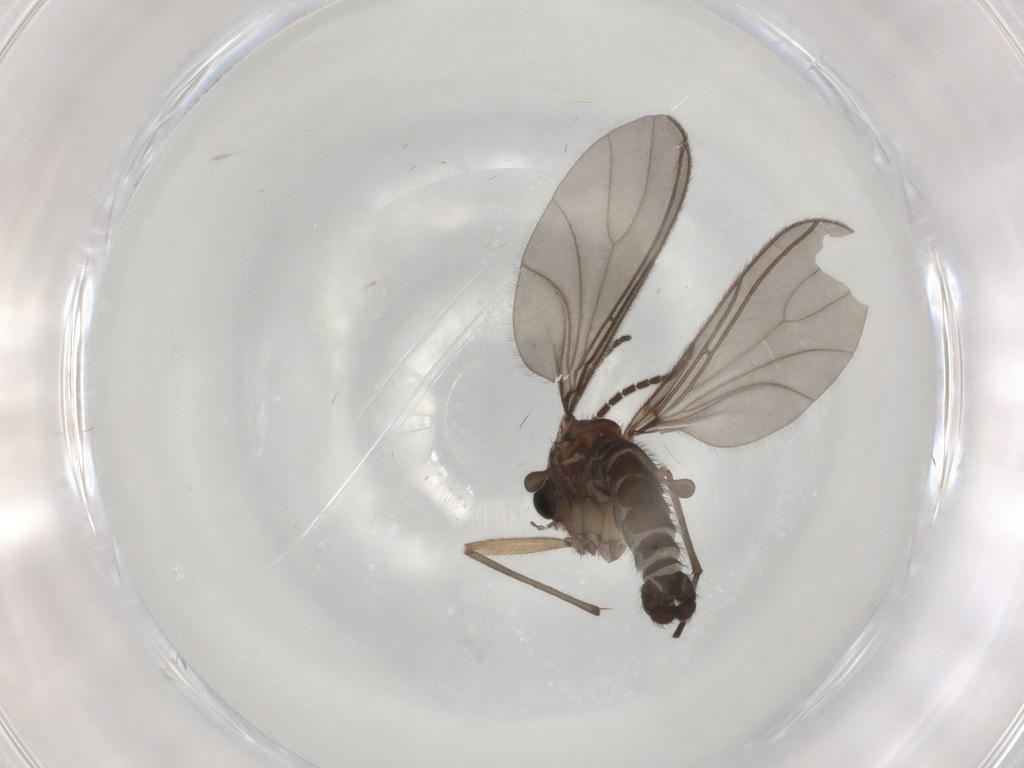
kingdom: Animalia
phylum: Arthropoda
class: Insecta
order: Diptera
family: Sciaridae
